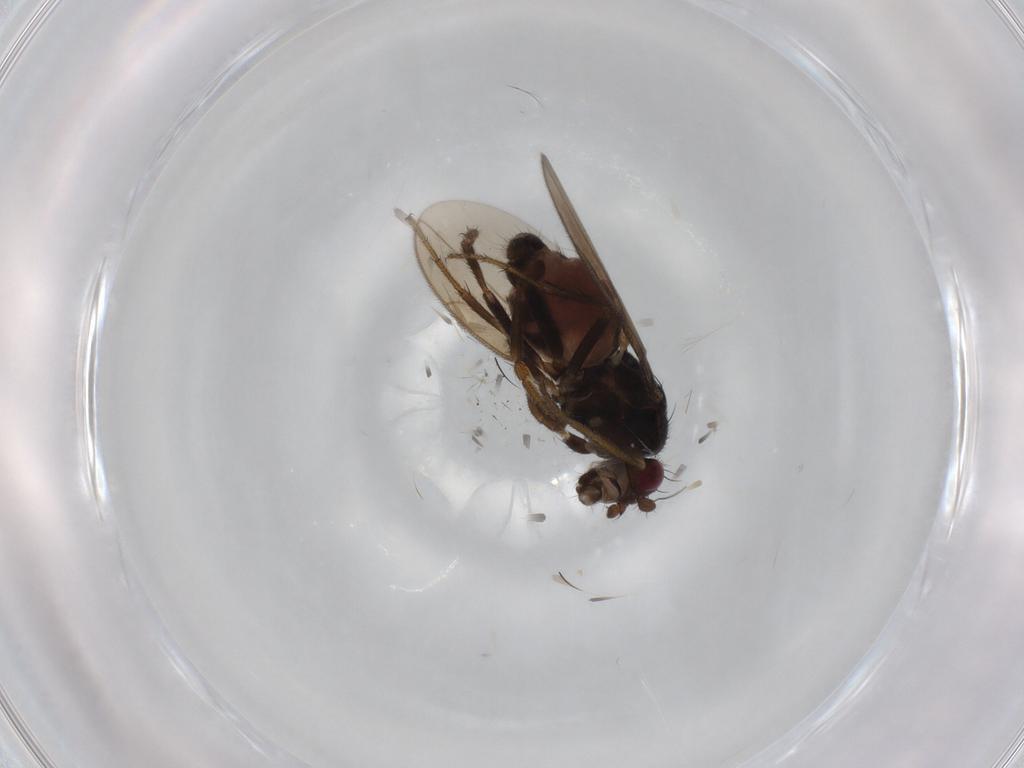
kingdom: Animalia
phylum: Arthropoda
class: Insecta
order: Diptera
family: Sphaeroceridae
